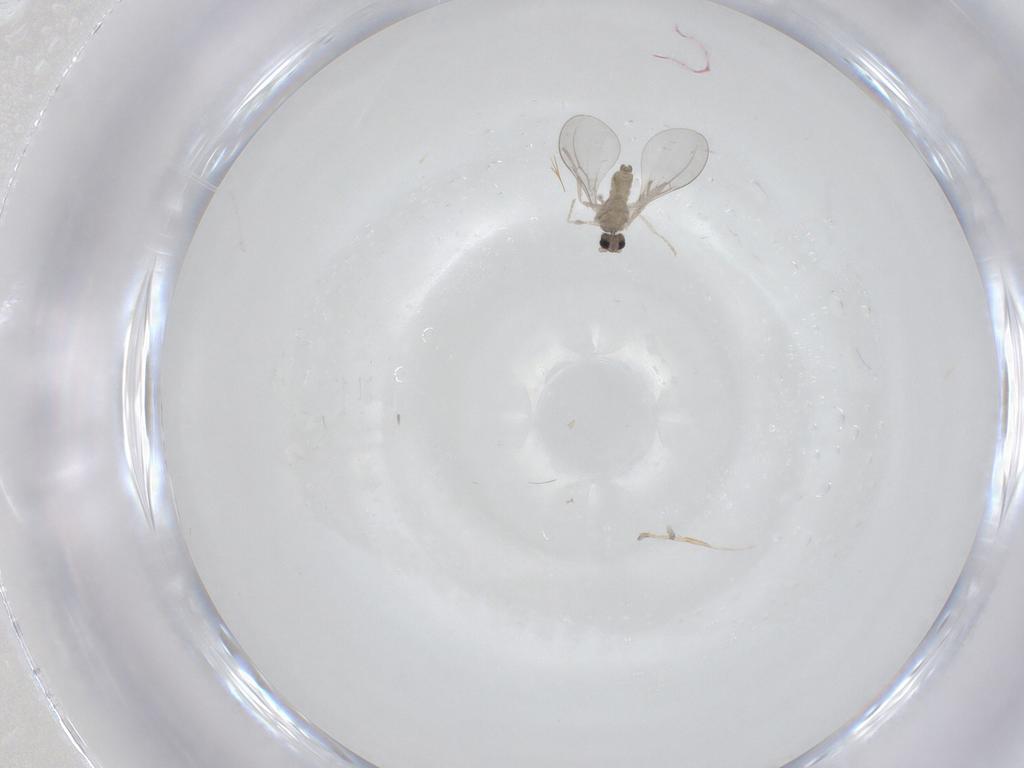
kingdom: Animalia
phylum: Arthropoda
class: Insecta
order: Diptera
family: Cecidomyiidae
